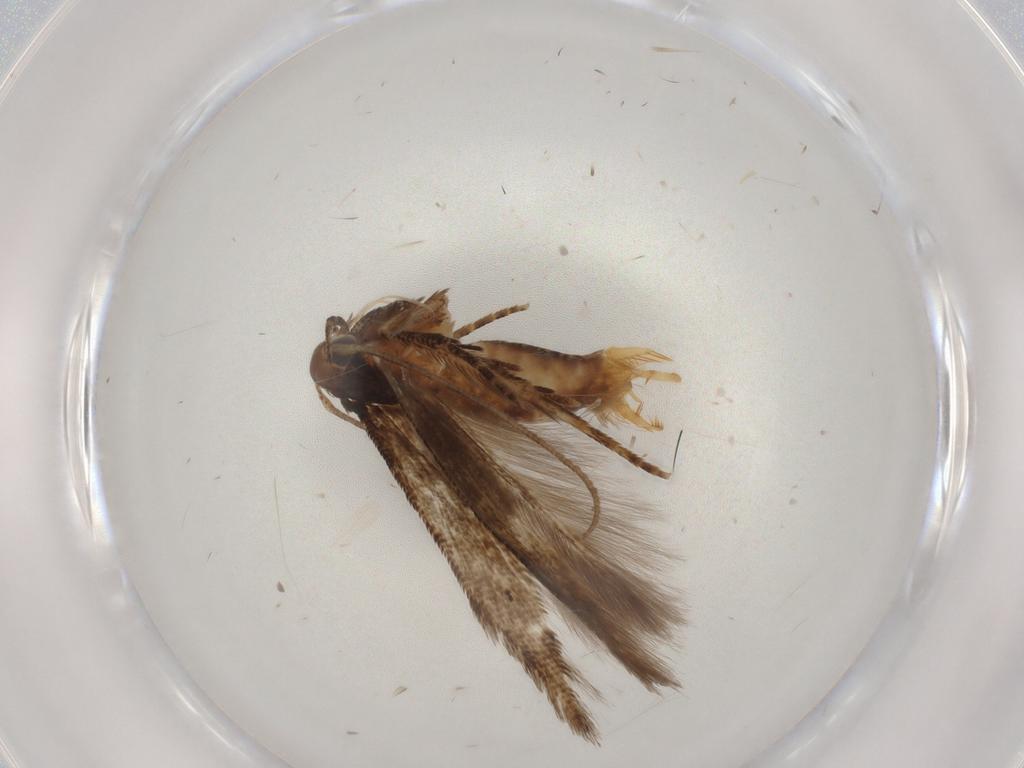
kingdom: Animalia
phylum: Arthropoda
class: Insecta
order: Lepidoptera
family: Cosmopterigidae
